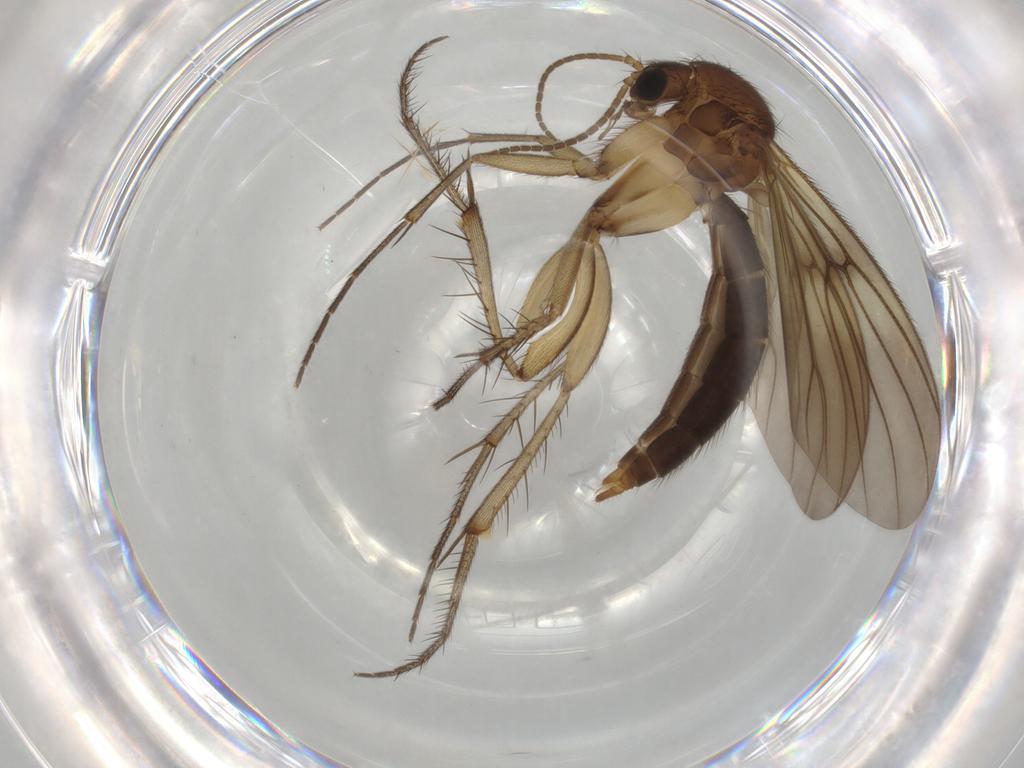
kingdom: Animalia
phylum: Arthropoda
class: Insecta
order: Diptera
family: Mycetophilidae
